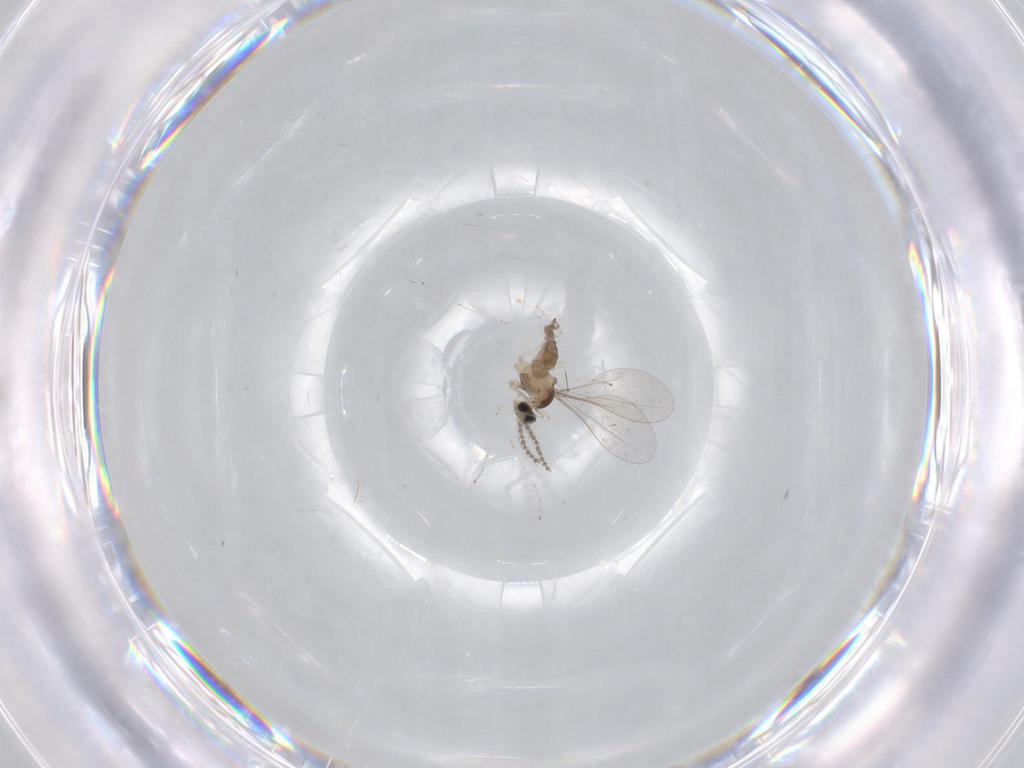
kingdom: Animalia
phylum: Arthropoda
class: Insecta
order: Diptera
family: Cecidomyiidae
